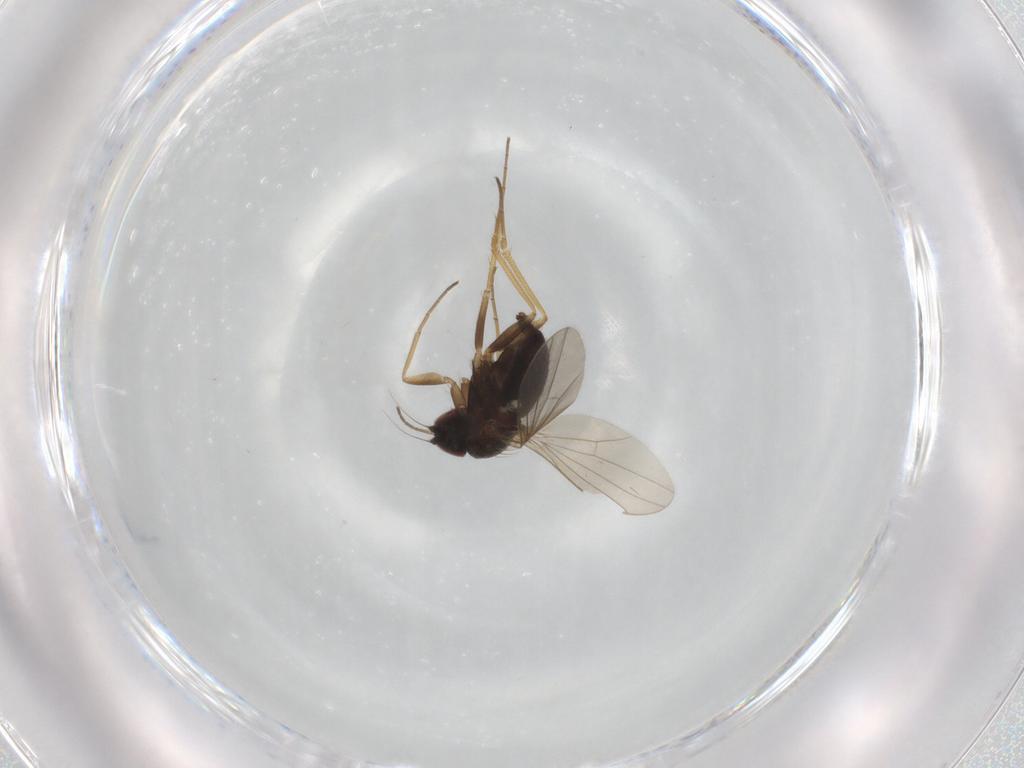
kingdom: Animalia
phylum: Arthropoda
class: Insecta
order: Diptera
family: Dolichopodidae
